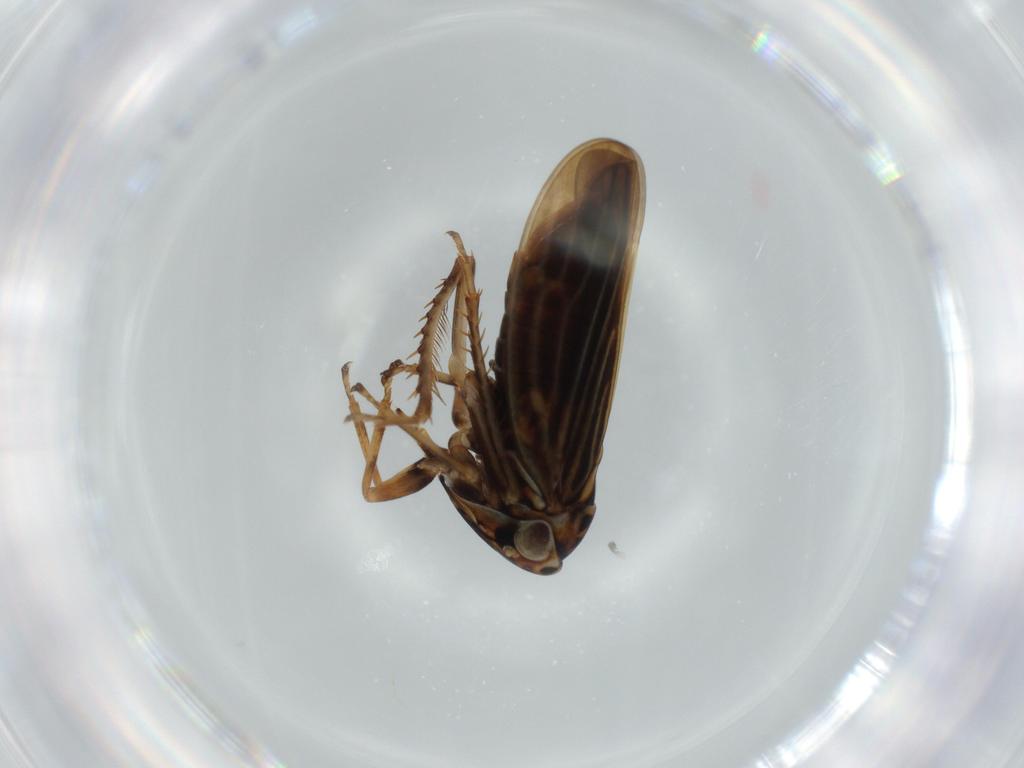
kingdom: Animalia
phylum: Arthropoda
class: Insecta
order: Hemiptera
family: Cicadellidae
